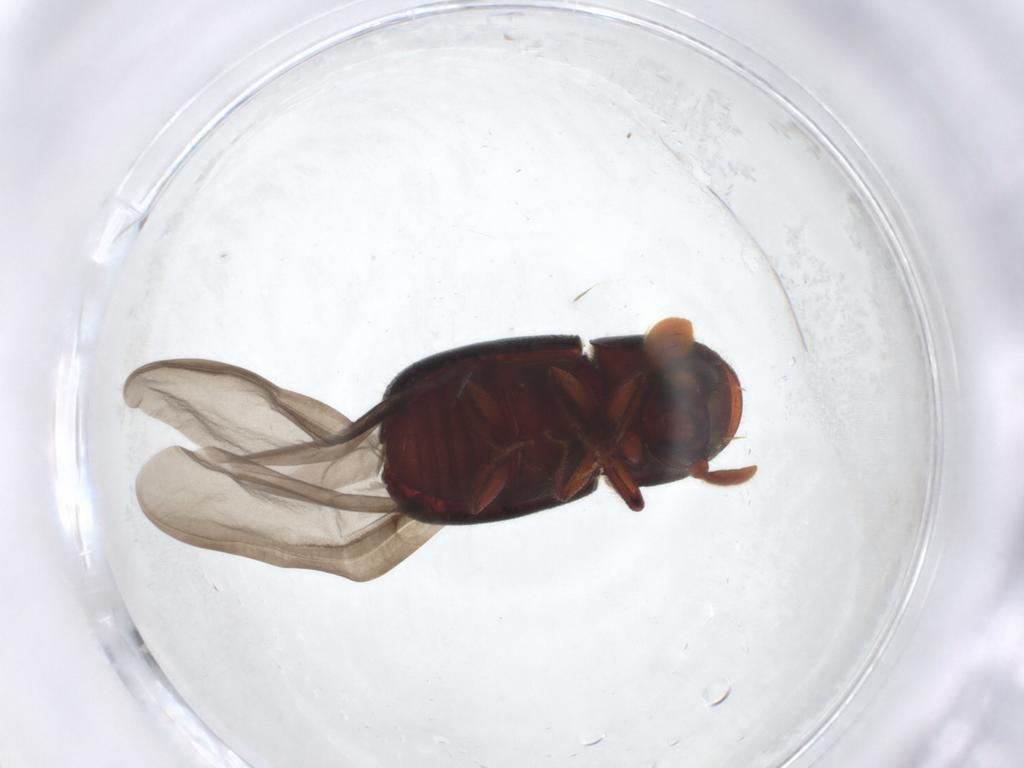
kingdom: Animalia
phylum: Arthropoda
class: Insecta
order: Coleoptera
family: Curculionidae
